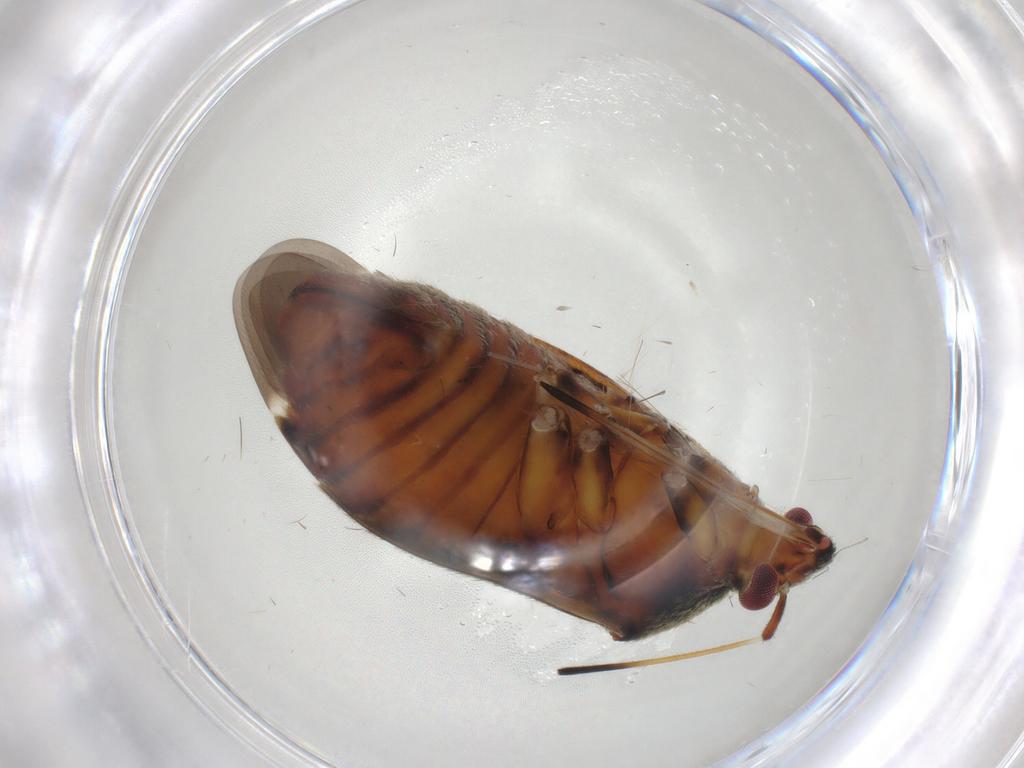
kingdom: Animalia
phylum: Arthropoda
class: Insecta
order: Hemiptera
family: Miridae
